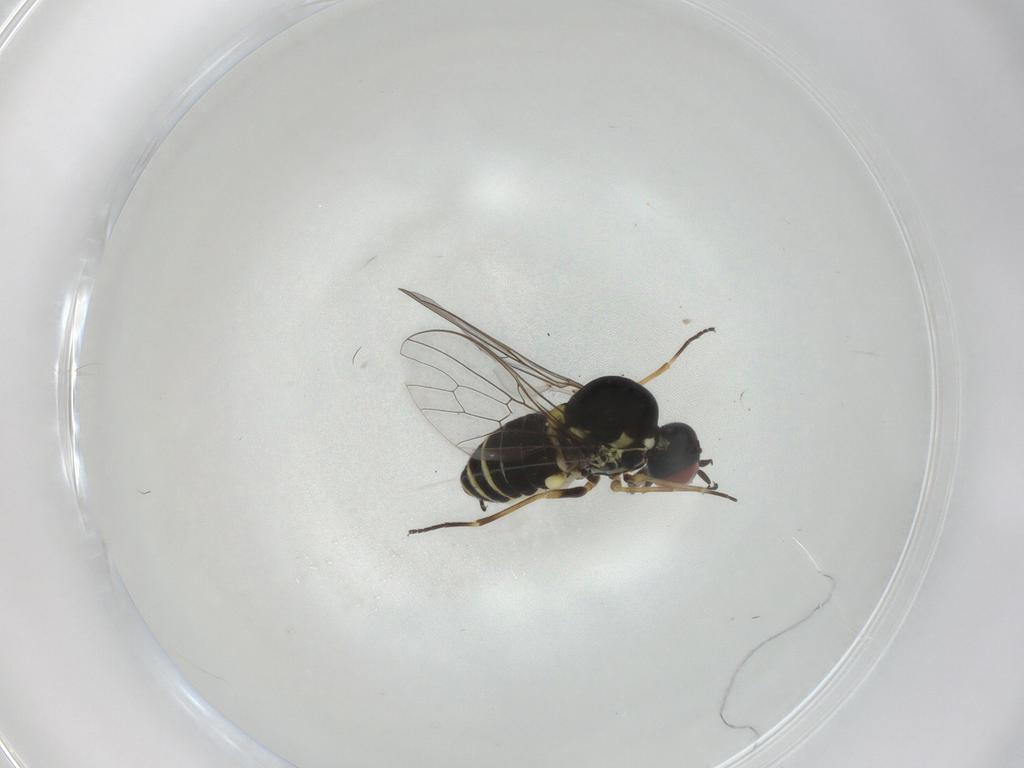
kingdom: Animalia
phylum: Arthropoda
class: Insecta
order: Diptera
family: Bombyliidae
